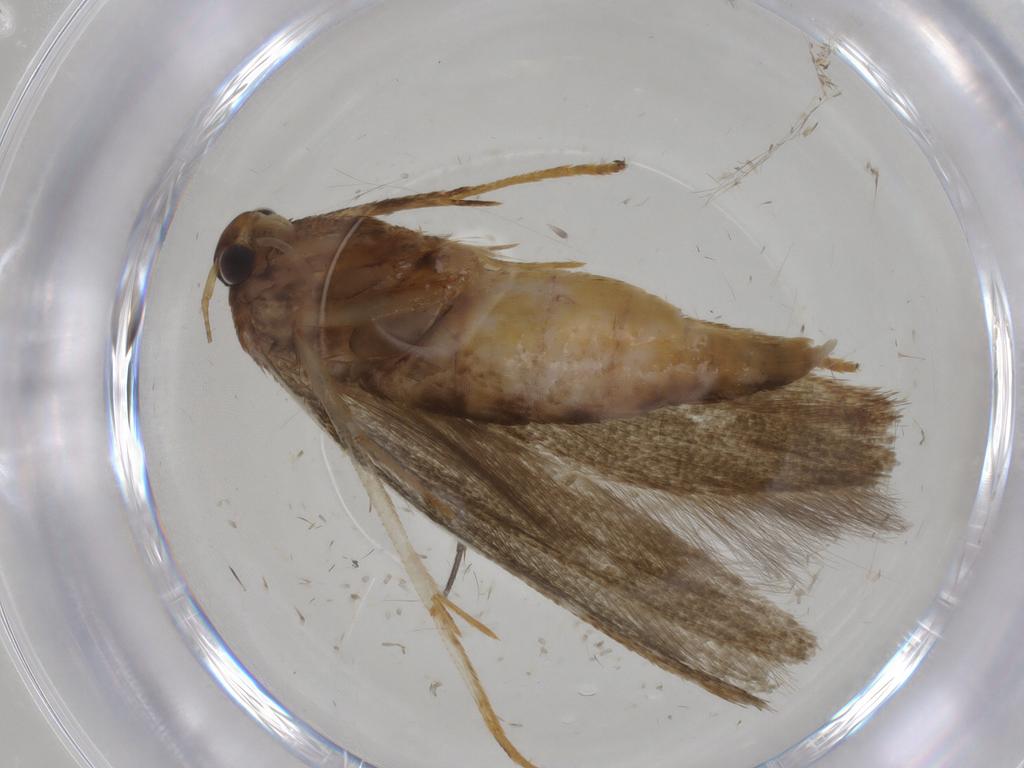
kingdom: Animalia
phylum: Arthropoda
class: Insecta
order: Lepidoptera
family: Blastobasidae
